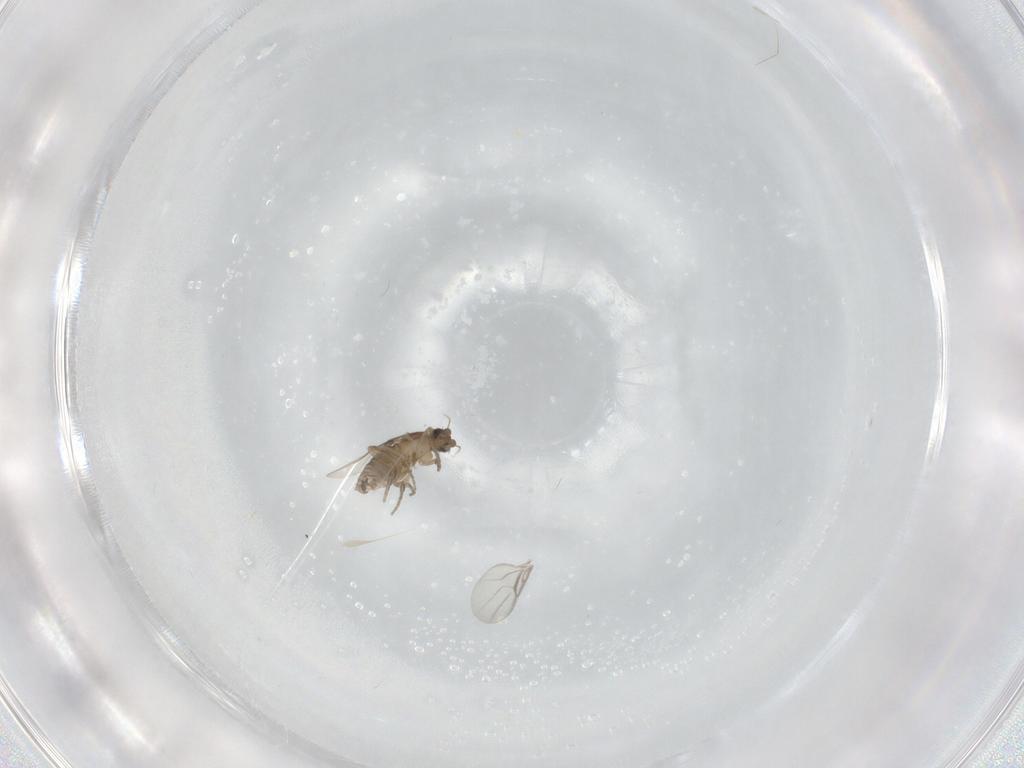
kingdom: Animalia
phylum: Arthropoda
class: Insecta
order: Diptera
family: Phoridae
